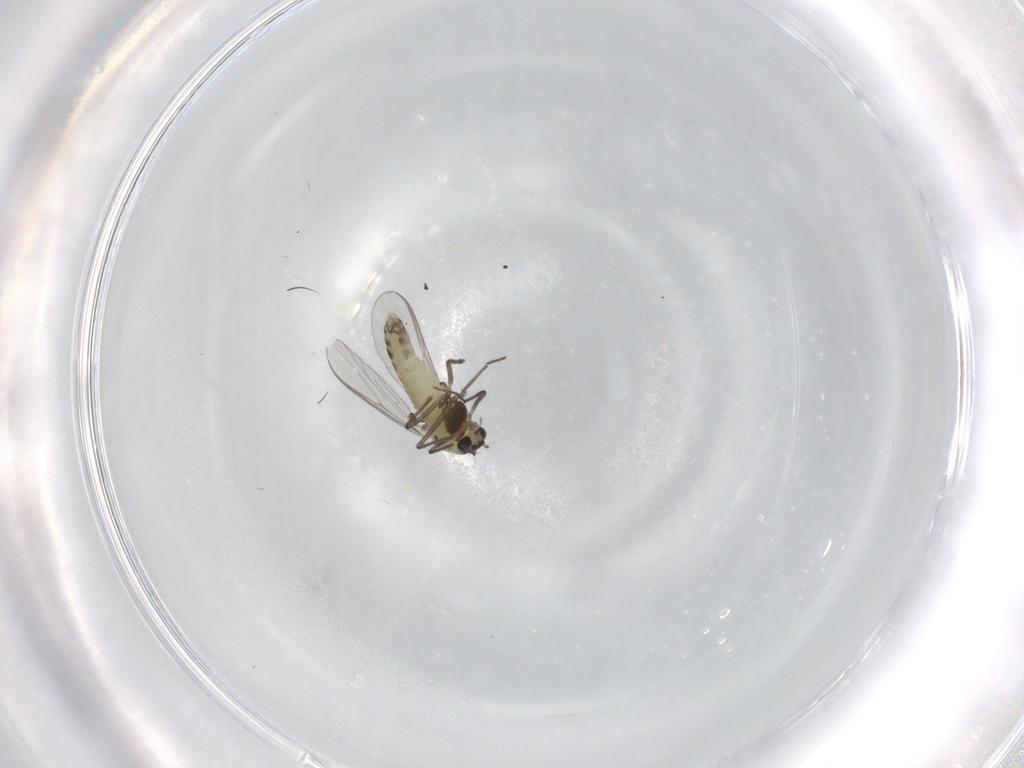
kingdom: Animalia
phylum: Arthropoda
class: Insecta
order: Diptera
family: Chironomidae
